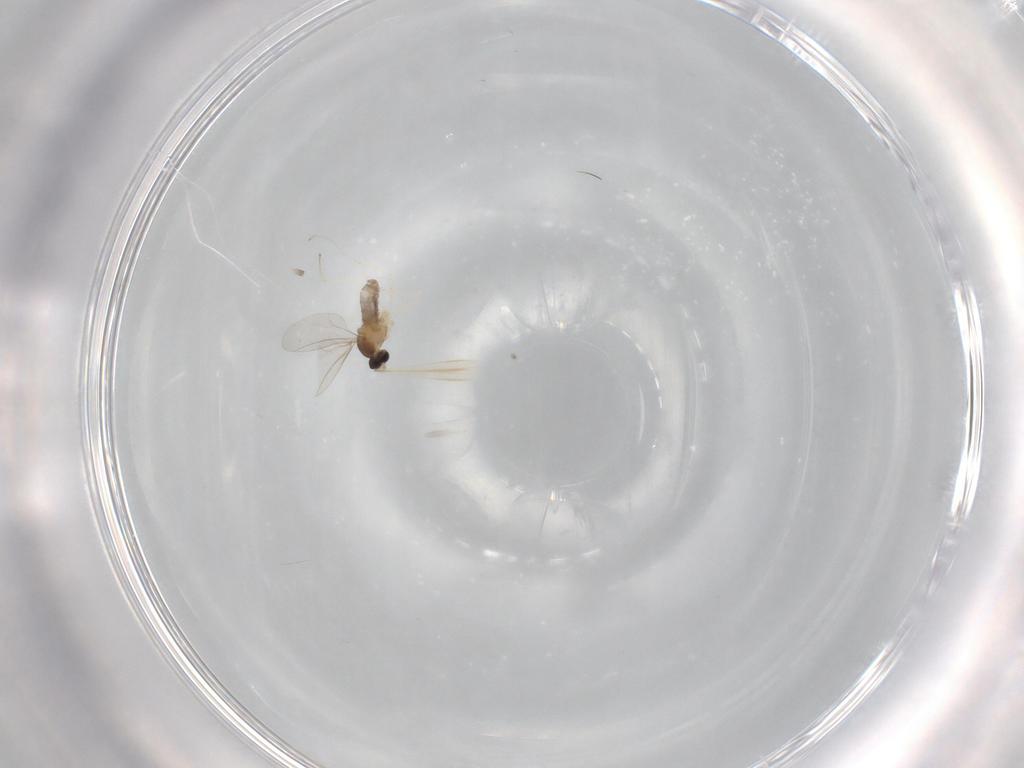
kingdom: Animalia
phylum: Arthropoda
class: Insecta
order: Diptera
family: Cecidomyiidae
